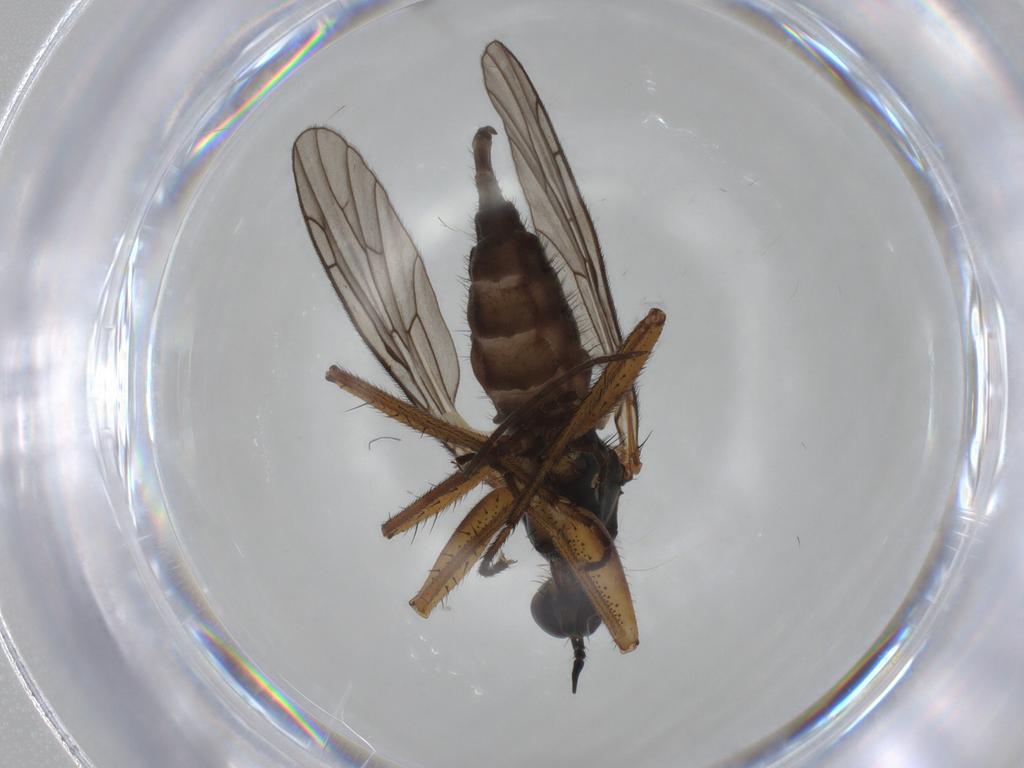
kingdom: Animalia
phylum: Arthropoda
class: Insecta
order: Diptera
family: Empididae
